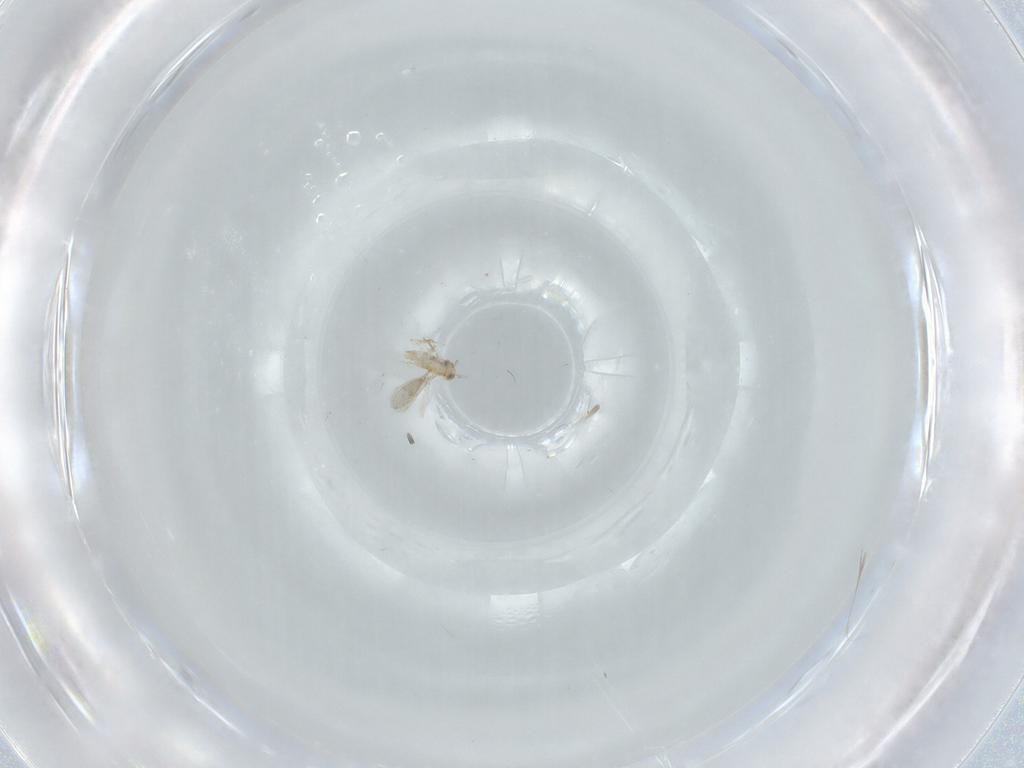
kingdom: Animalia
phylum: Arthropoda
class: Insecta
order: Hymenoptera
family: Aphelinidae
